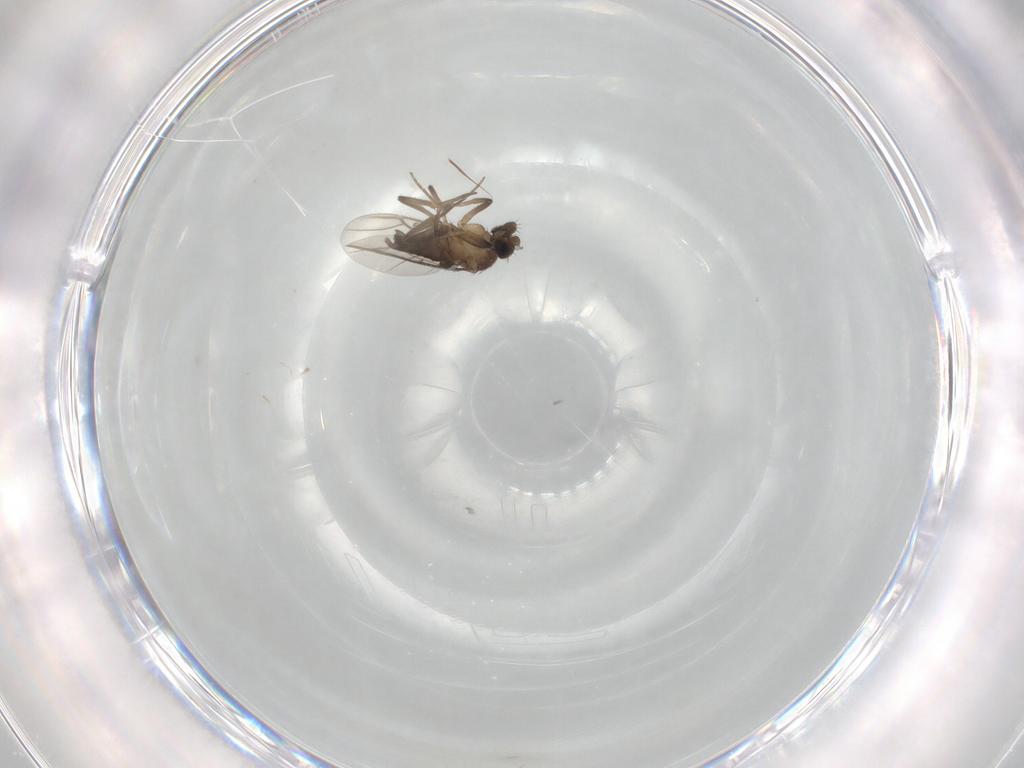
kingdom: Animalia
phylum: Arthropoda
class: Insecta
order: Diptera
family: Phoridae
